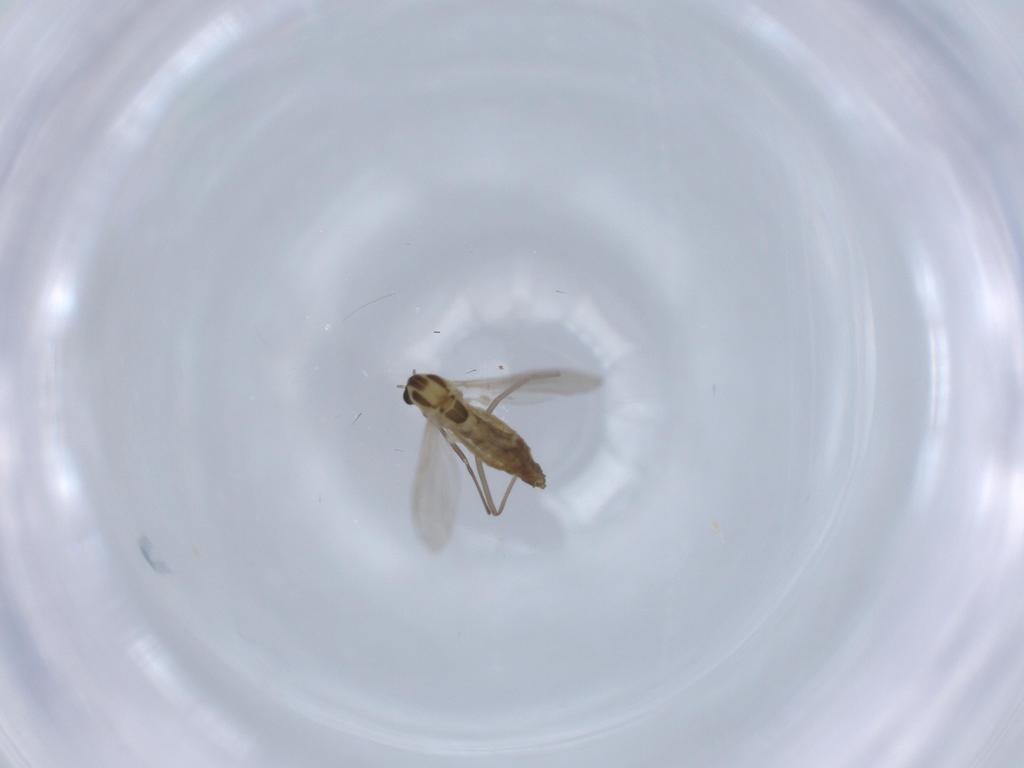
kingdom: Animalia
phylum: Arthropoda
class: Insecta
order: Diptera
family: Chironomidae
